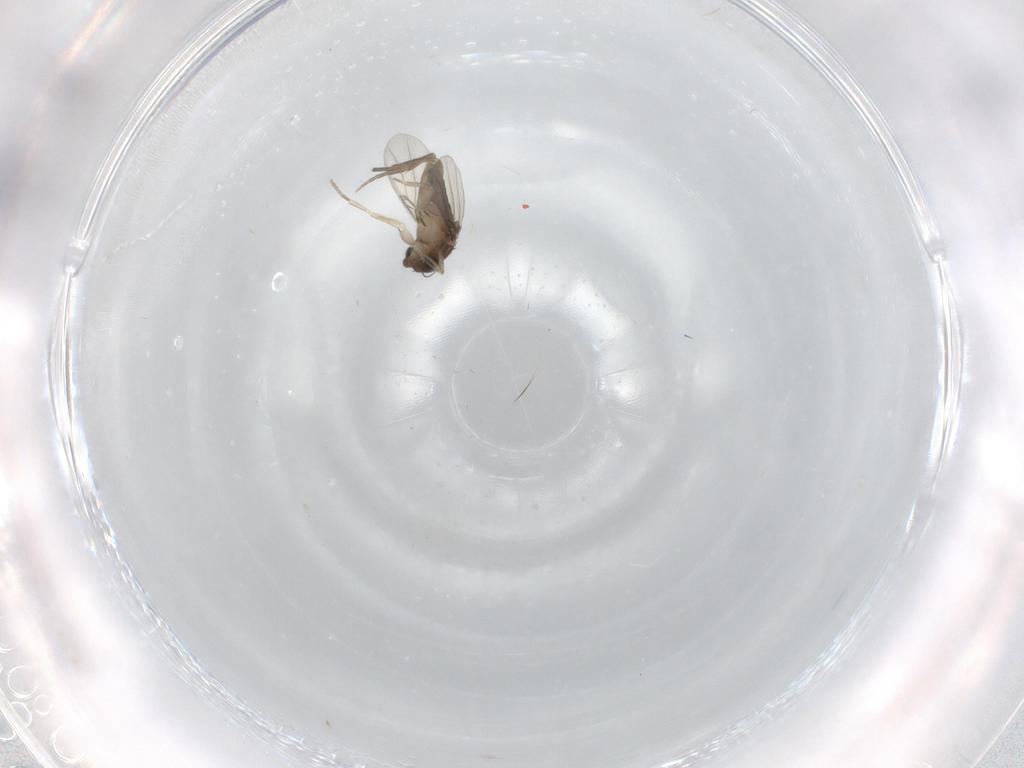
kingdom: Animalia
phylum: Arthropoda
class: Insecta
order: Diptera
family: Phoridae
